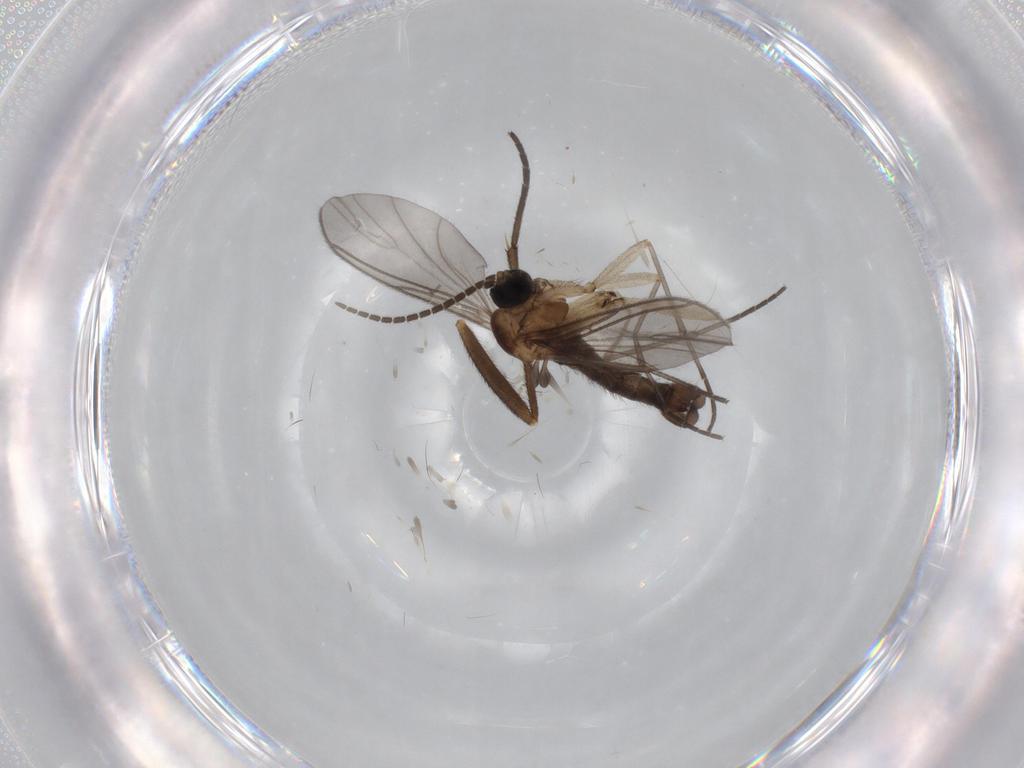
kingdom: Animalia
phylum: Arthropoda
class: Insecta
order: Diptera
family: Sciaridae
